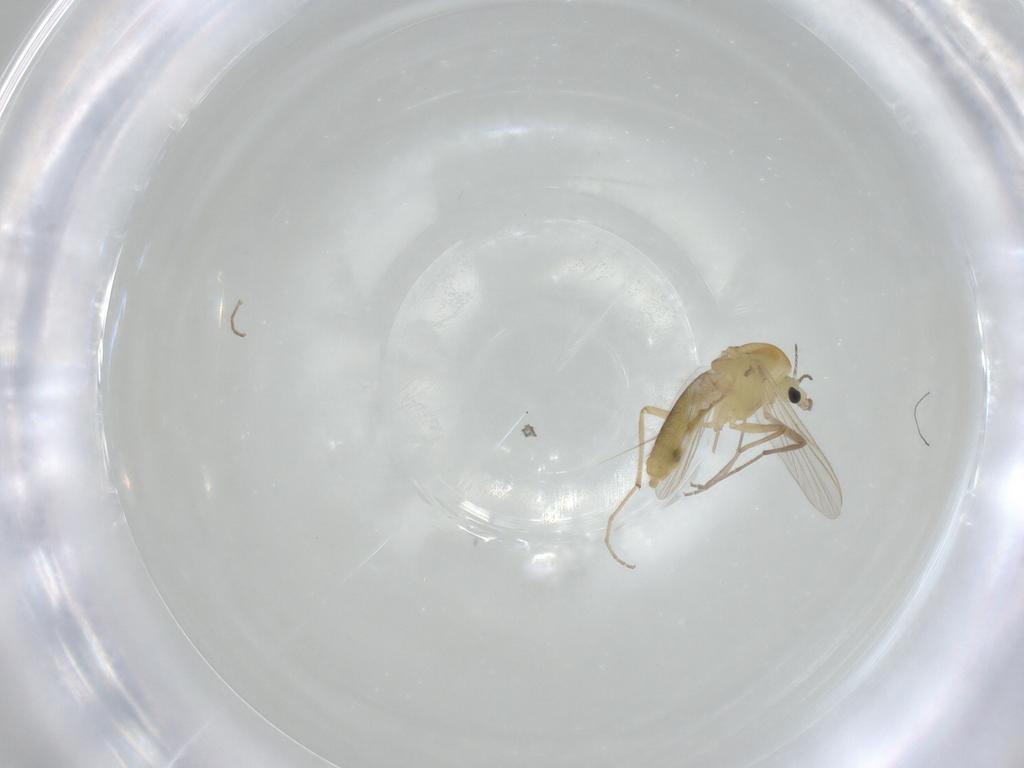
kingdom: Animalia
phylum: Arthropoda
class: Insecta
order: Diptera
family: Chironomidae
